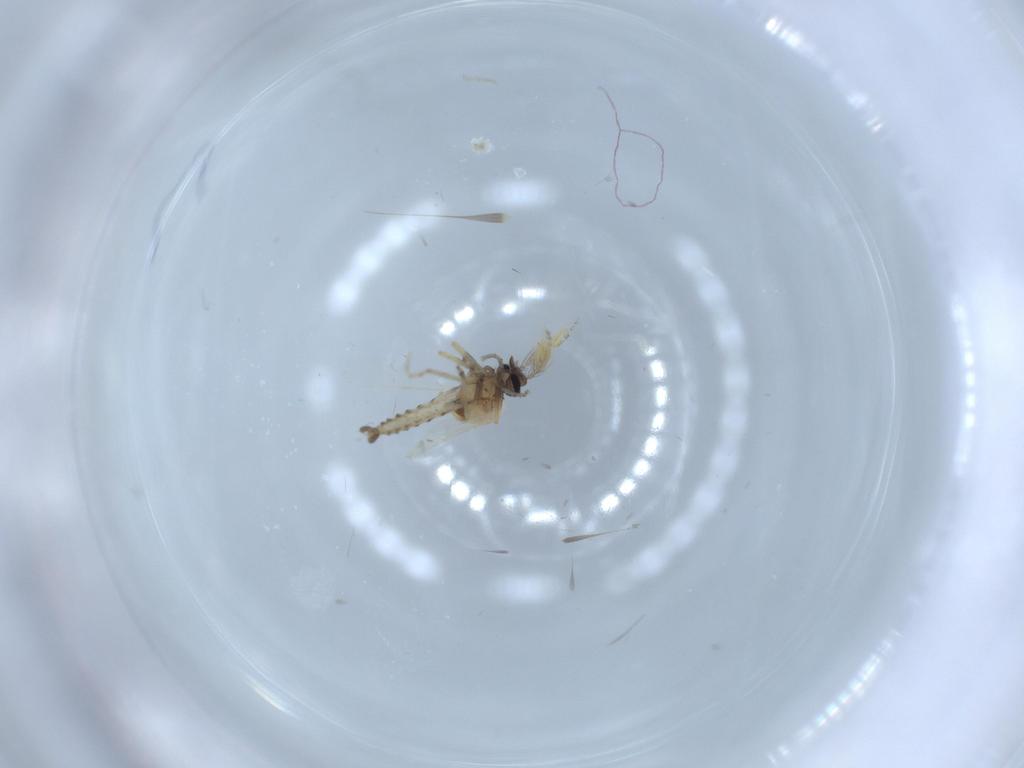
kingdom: Animalia
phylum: Arthropoda
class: Insecta
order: Diptera
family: Ceratopogonidae
